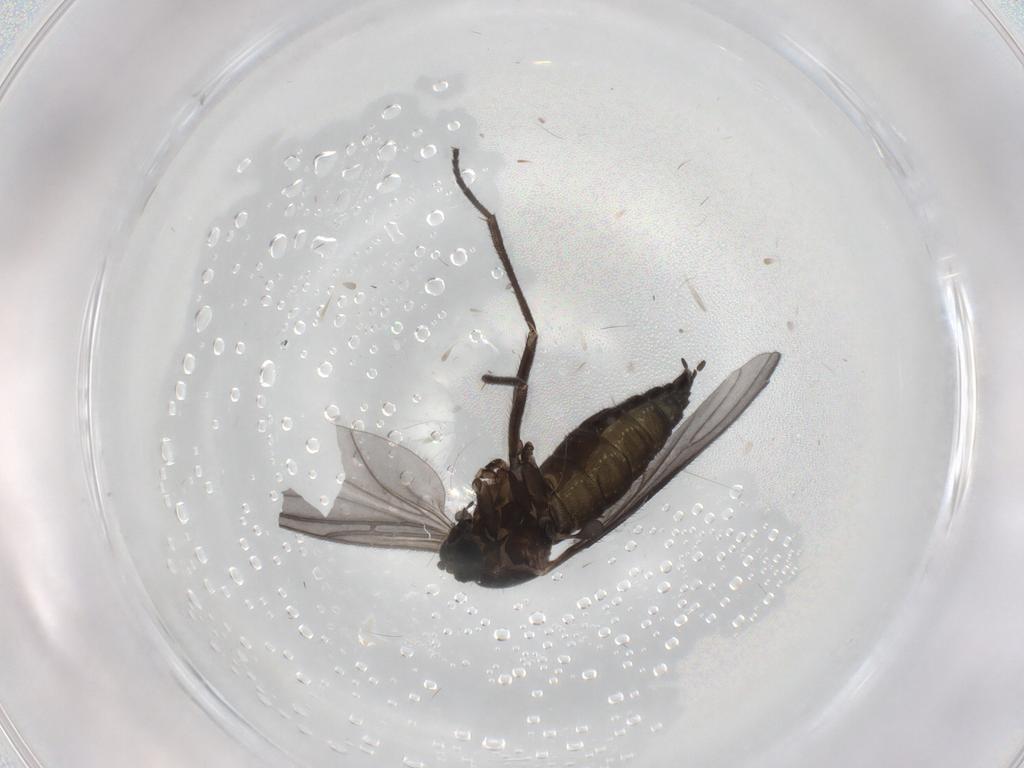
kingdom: Animalia
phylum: Arthropoda
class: Insecta
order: Diptera
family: Sciaridae
